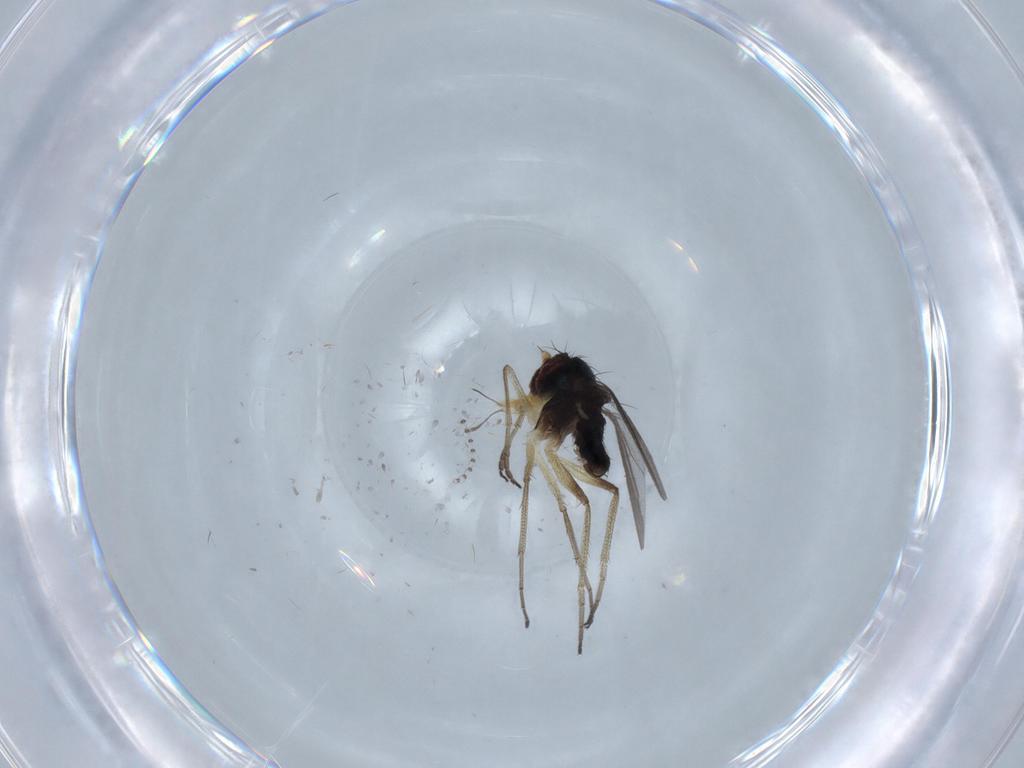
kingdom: Animalia
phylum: Arthropoda
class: Insecta
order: Diptera
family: Dolichopodidae
